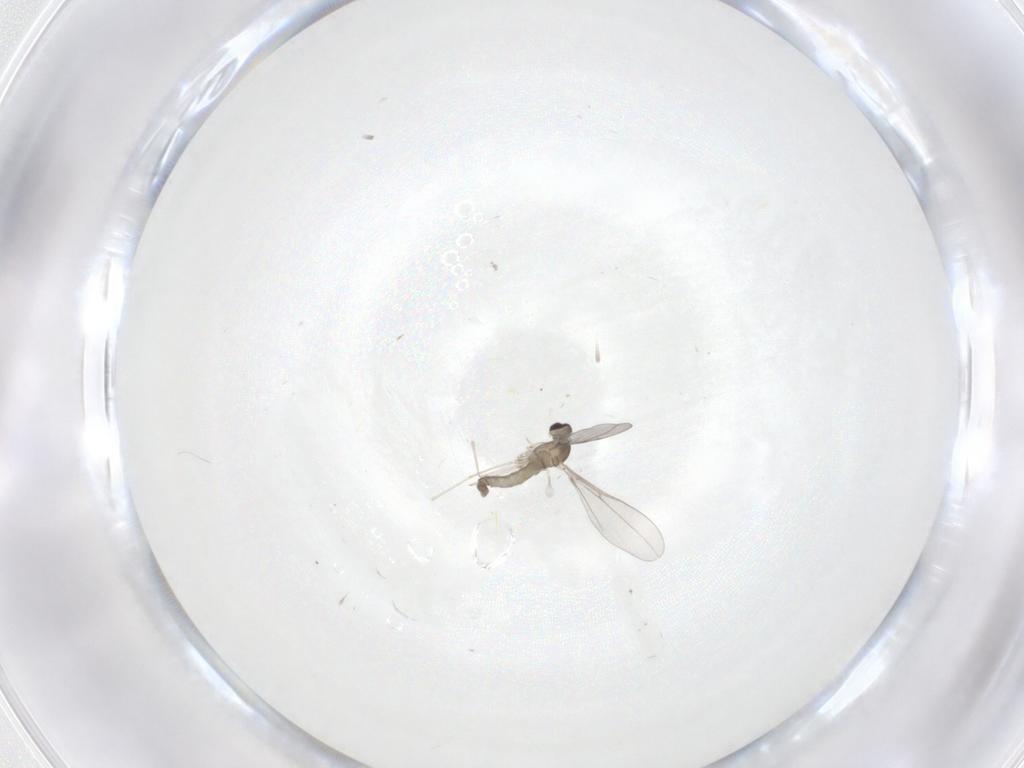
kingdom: Animalia
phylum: Arthropoda
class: Insecta
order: Diptera
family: Cecidomyiidae
